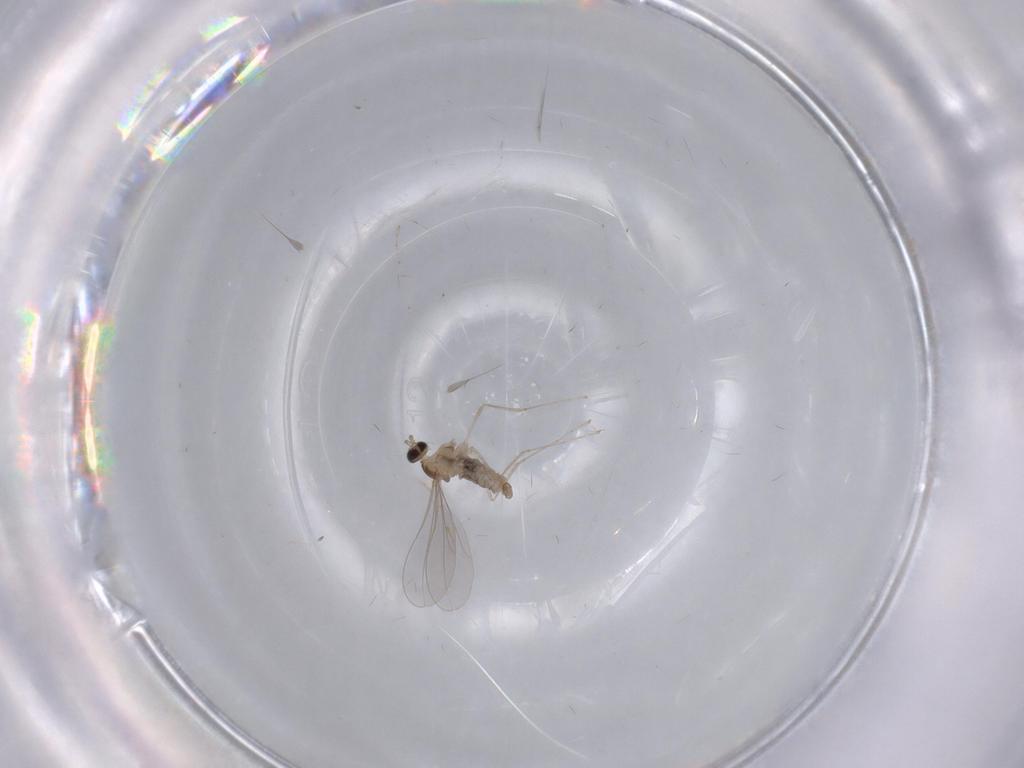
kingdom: Animalia
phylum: Arthropoda
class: Insecta
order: Diptera
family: Cecidomyiidae
